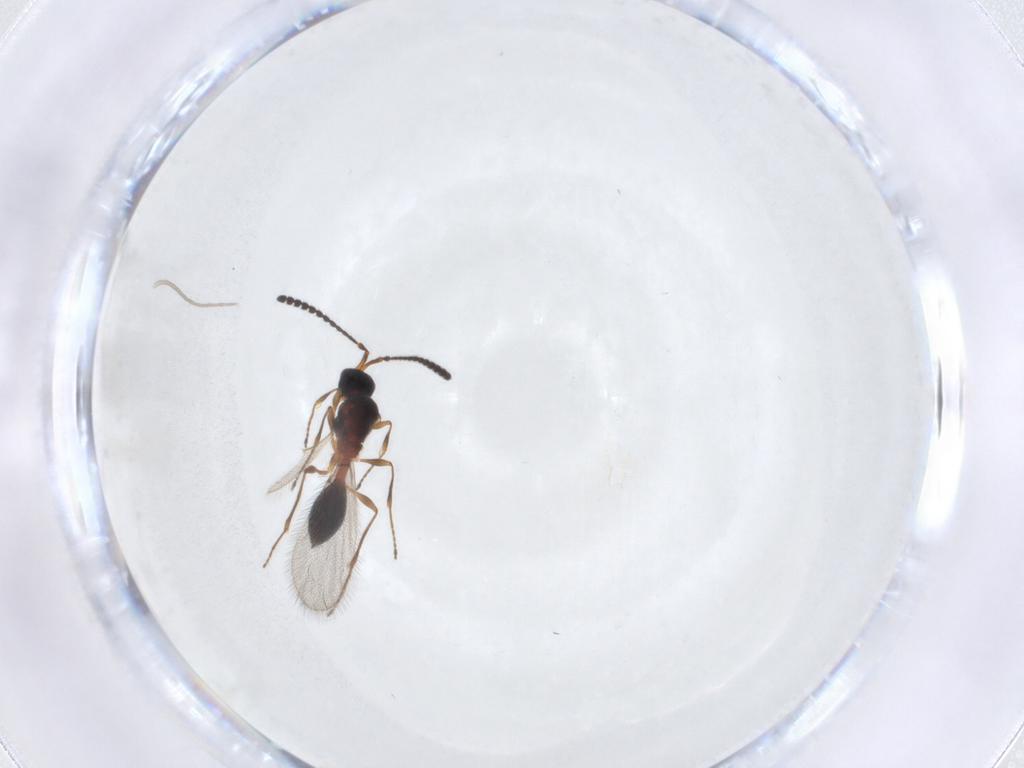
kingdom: Animalia
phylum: Arthropoda
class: Insecta
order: Hymenoptera
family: Diapriidae
